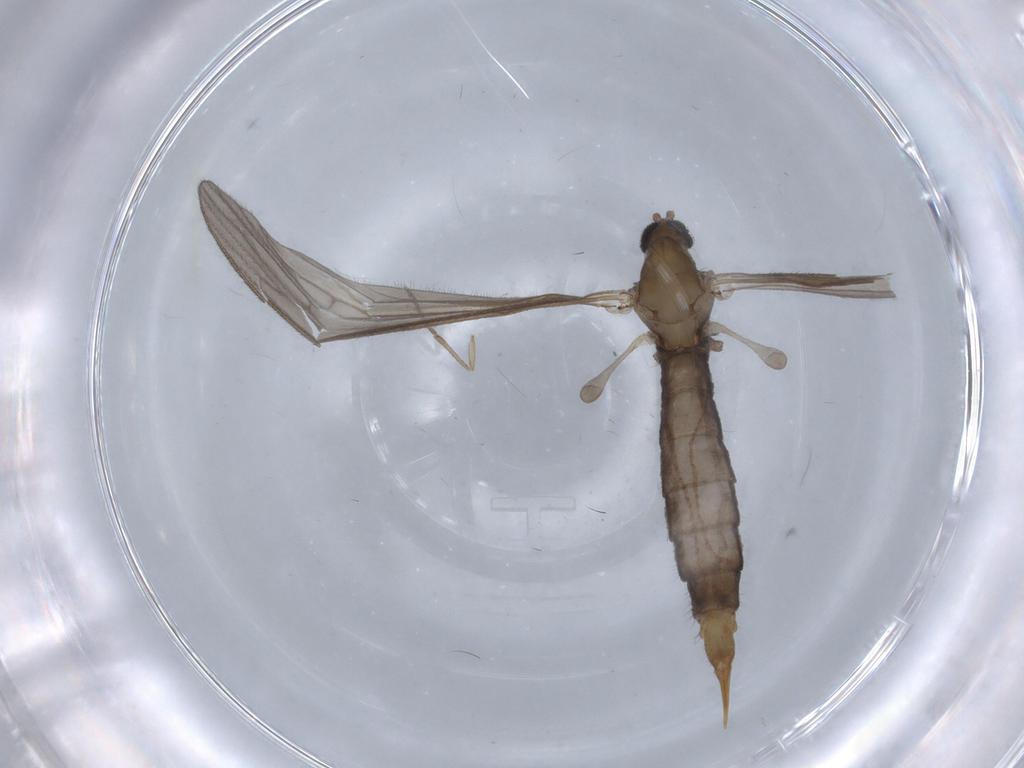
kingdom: Animalia
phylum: Arthropoda
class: Insecta
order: Diptera
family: Limoniidae
